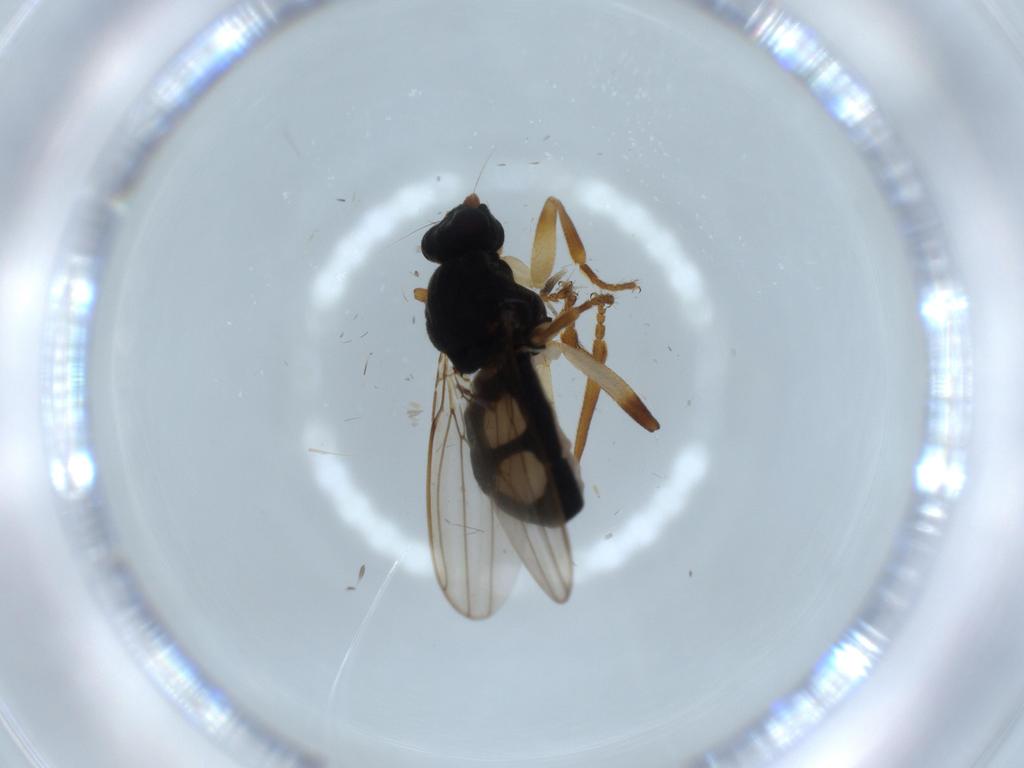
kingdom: Animalia
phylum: Arthropoda
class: Insecta
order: Diptera
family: Sphaeroceridae
